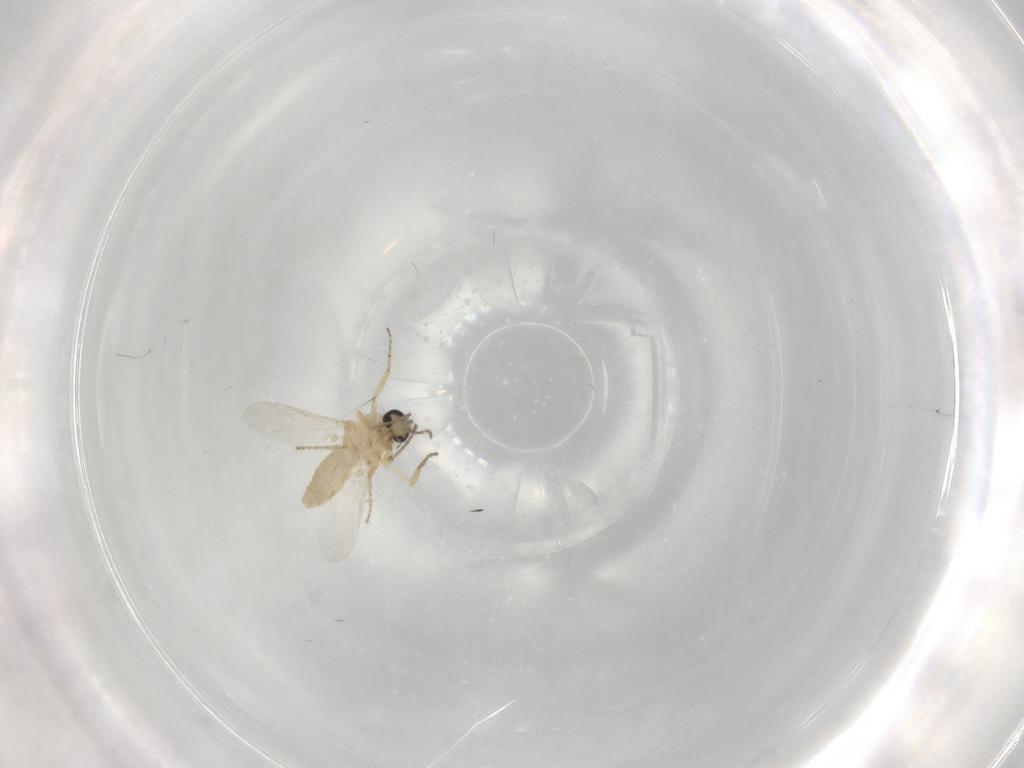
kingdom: Animalia
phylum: Arthropoda
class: Insecta
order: Diptera
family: Ceratopogonidae
